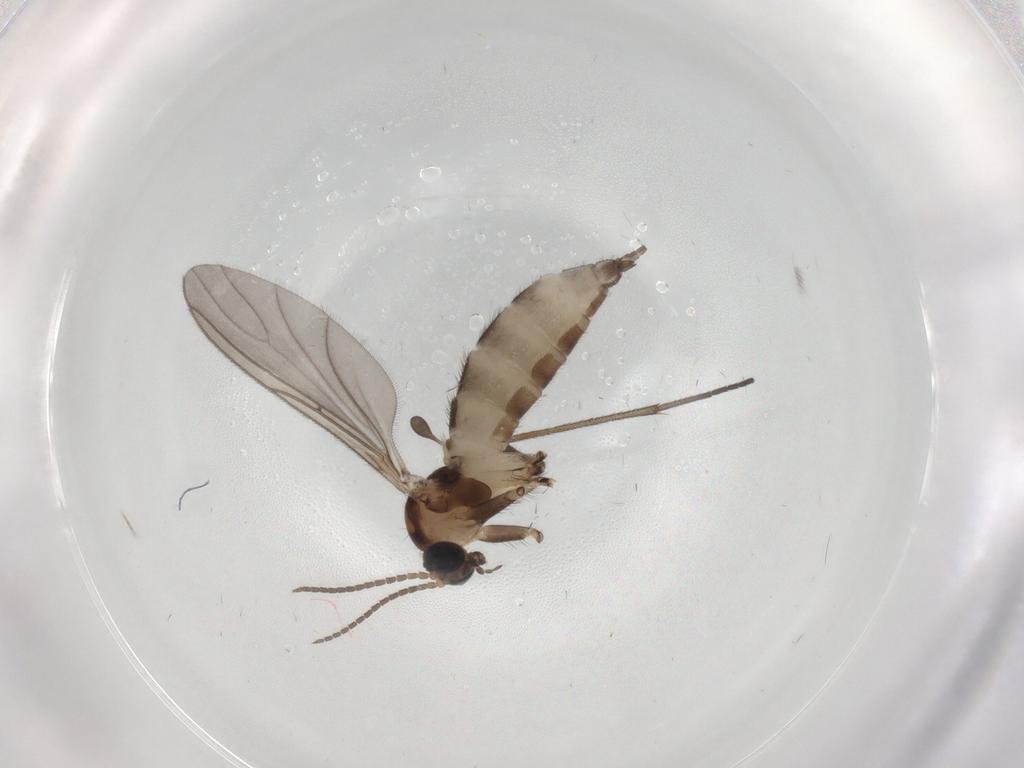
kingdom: Animalia
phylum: Arthropoda
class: Insecta
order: Diptera
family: Sciaridae
